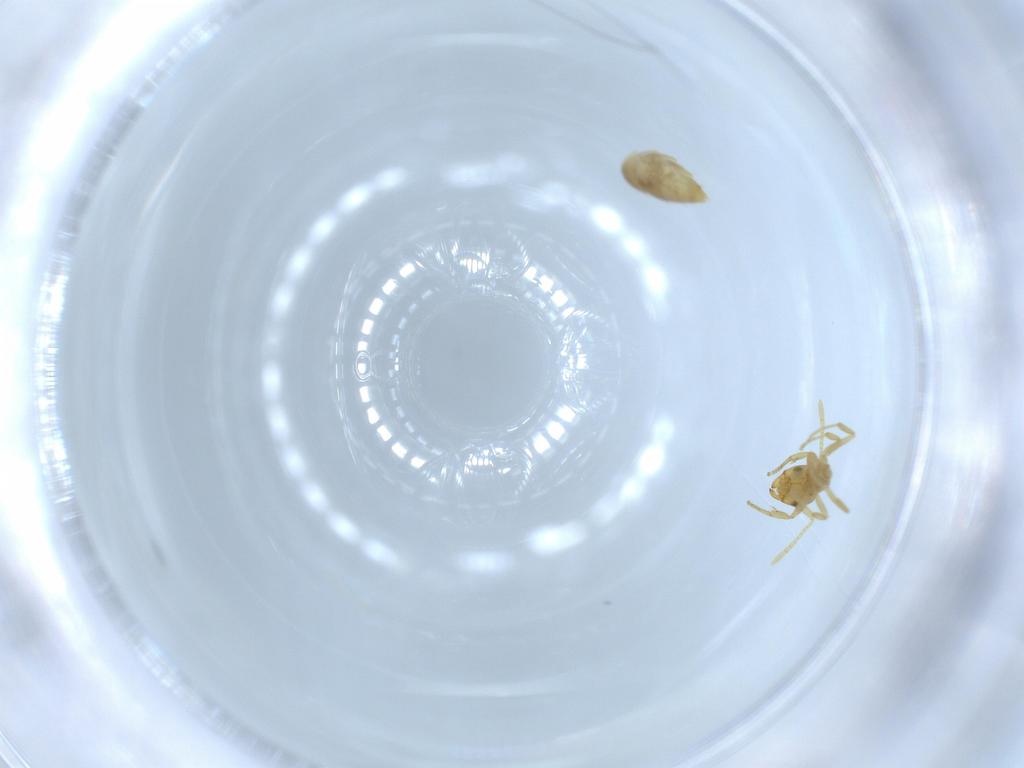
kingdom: Animalia
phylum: Arthropoda
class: Insecta
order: Hymenoptera
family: Formicidae
